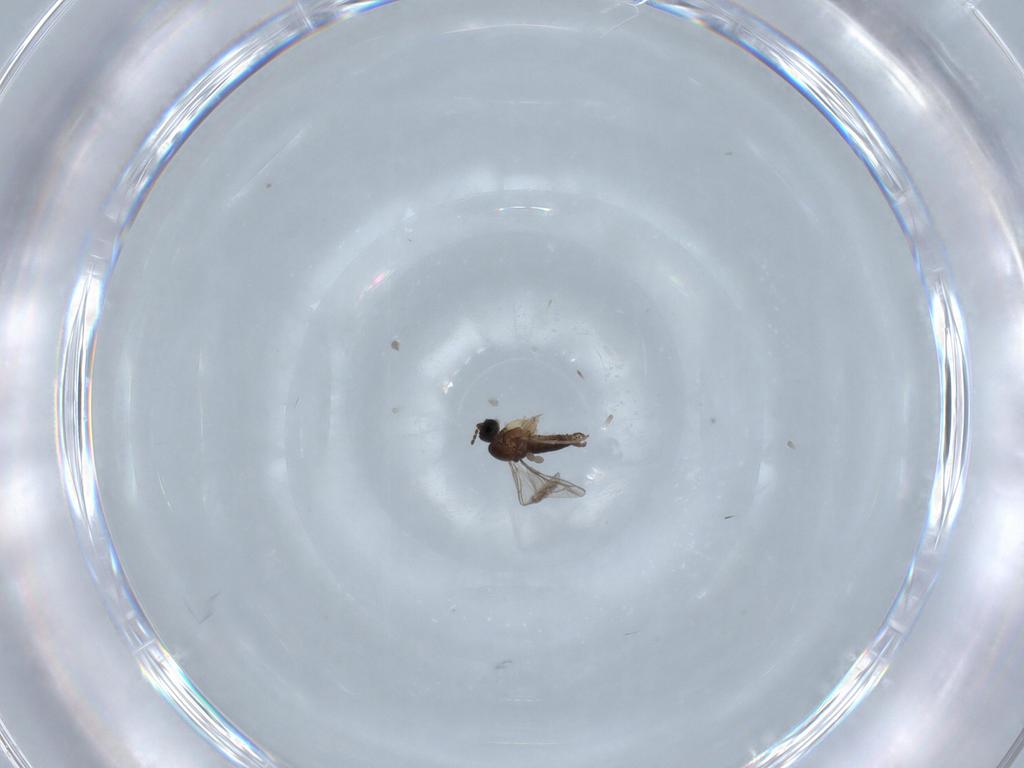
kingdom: Animalia
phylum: Arthropoda
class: Insecta
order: Diptera
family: Sciaridae
